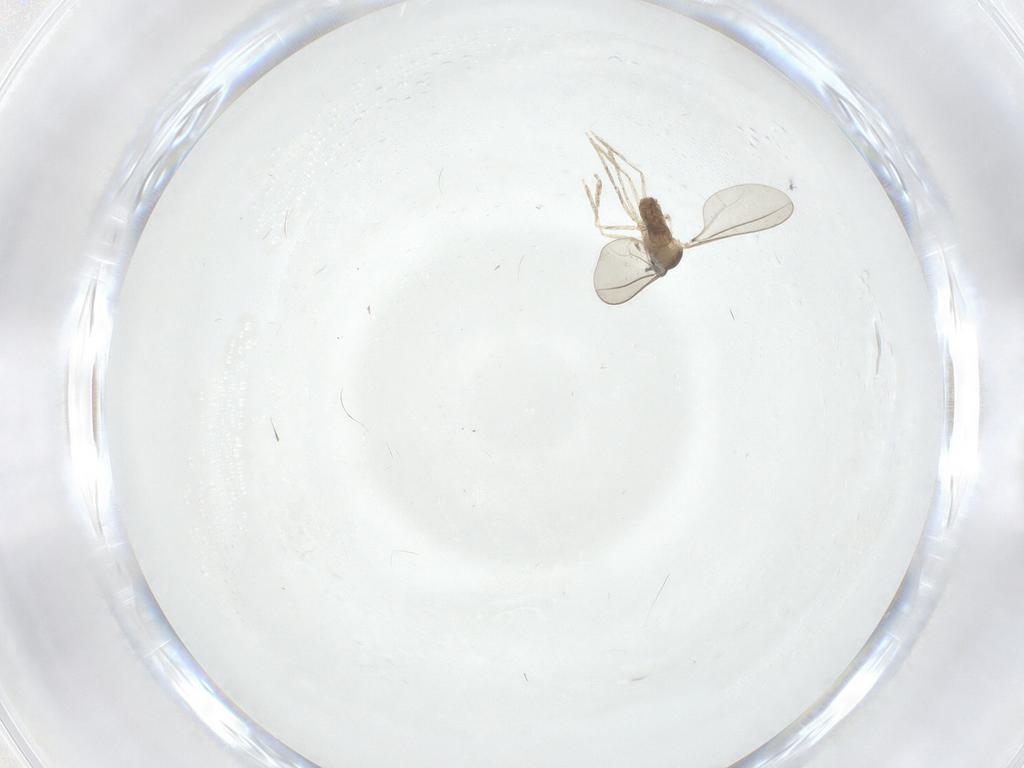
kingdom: Animalia
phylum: Arthropoda
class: Insecta
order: Diptera
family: Cecidomyiidae
